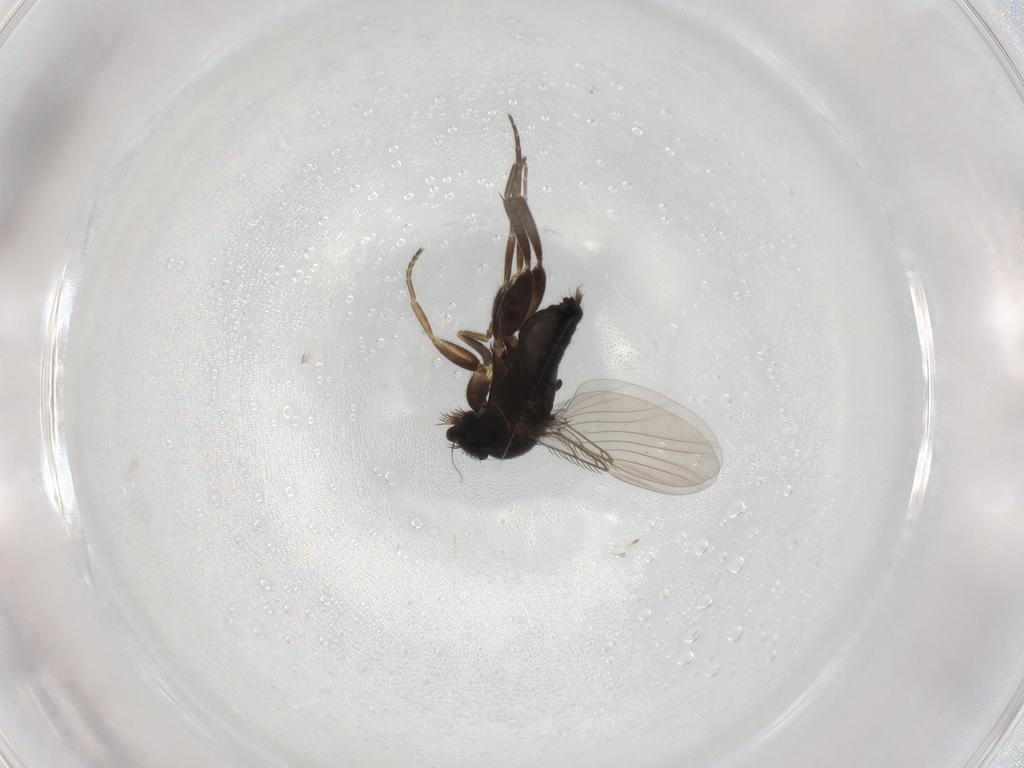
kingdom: Animalia
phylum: Arthropoda
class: Insecta
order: Diptera
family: Phoridae
